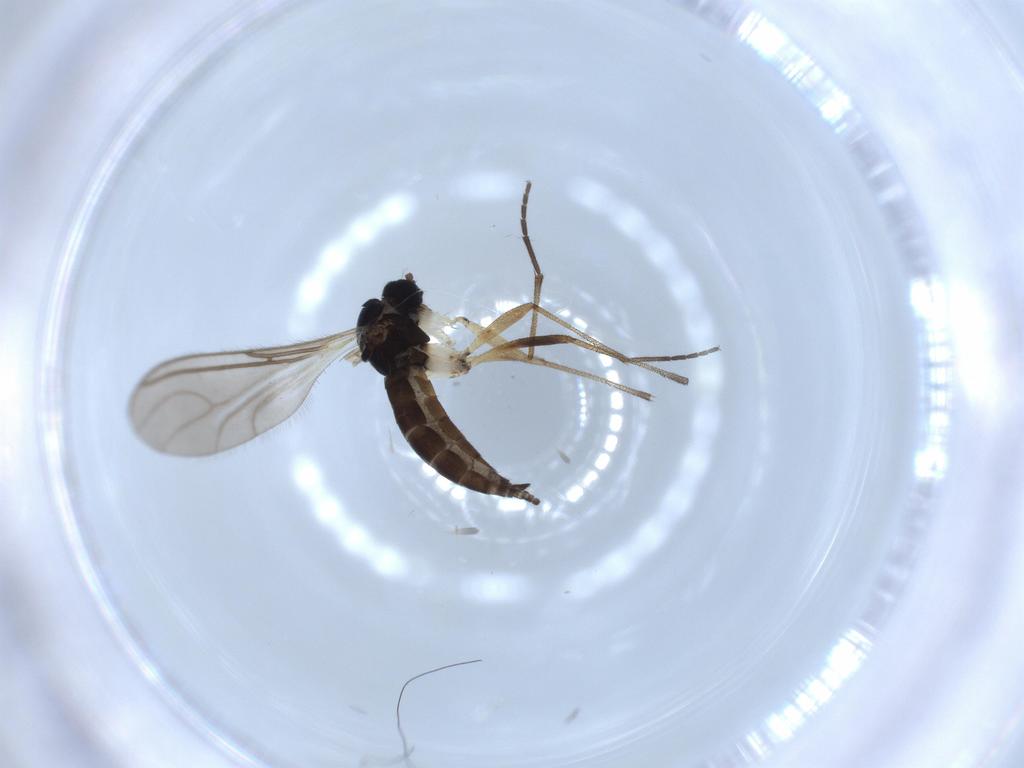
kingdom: Animalia
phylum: Arthropoda
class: Insecta
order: Diptera
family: Sciaridae
